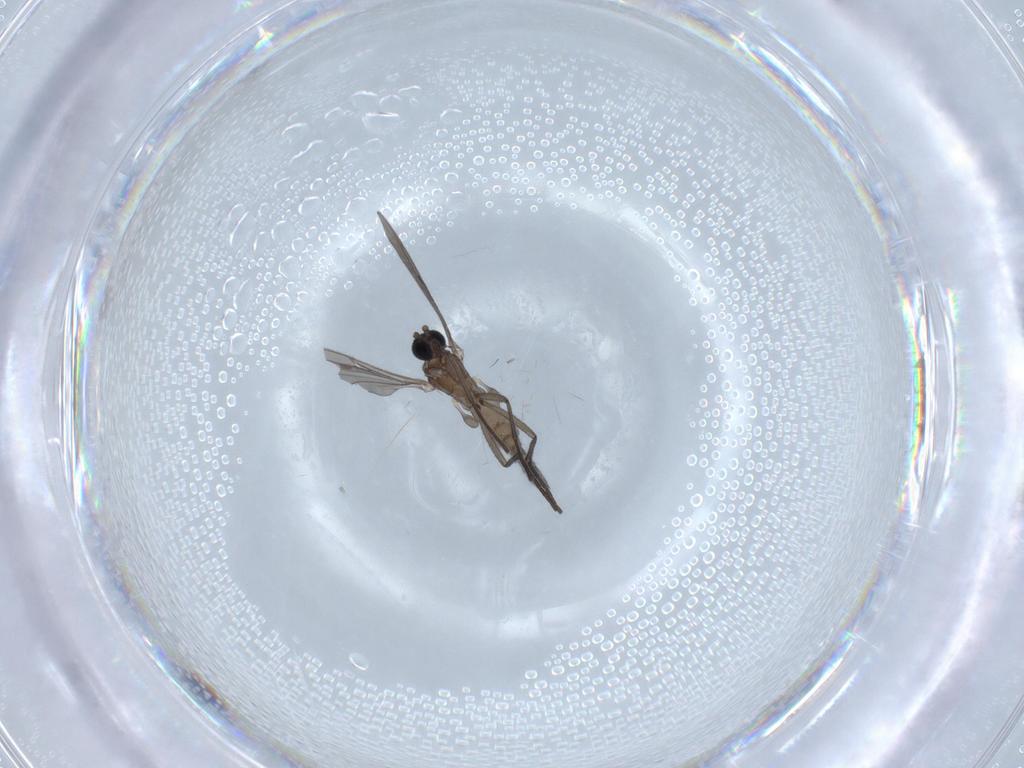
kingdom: Animalia
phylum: Arthropoda
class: Insecta
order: Diptera
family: Sciaridae
